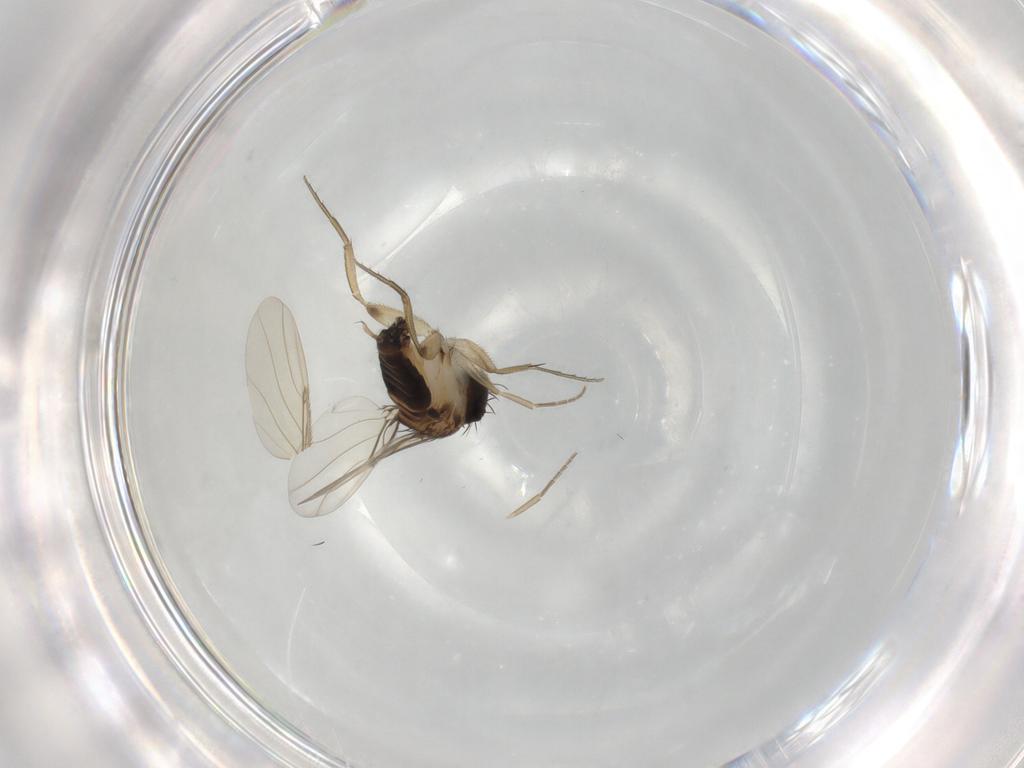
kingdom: Animalia
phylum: Arthropoda
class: Insecta
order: Diptera
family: Phoridae
